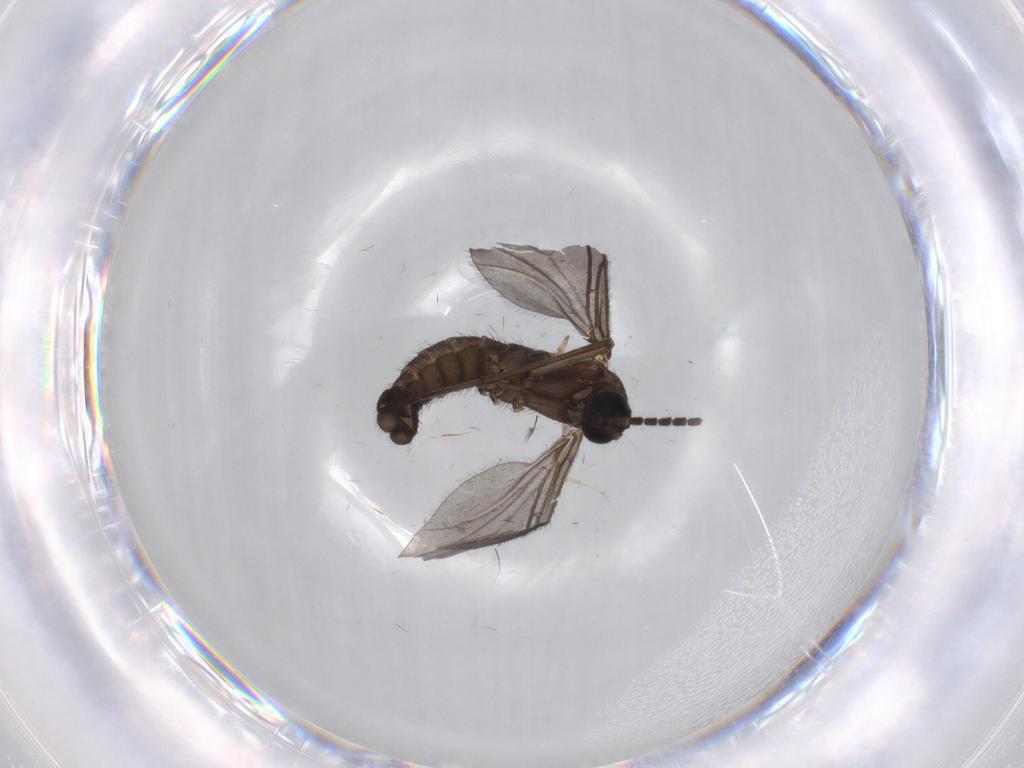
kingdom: Animalia
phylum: Arthropoda
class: Insecta
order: Diptera
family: Sciaridae
